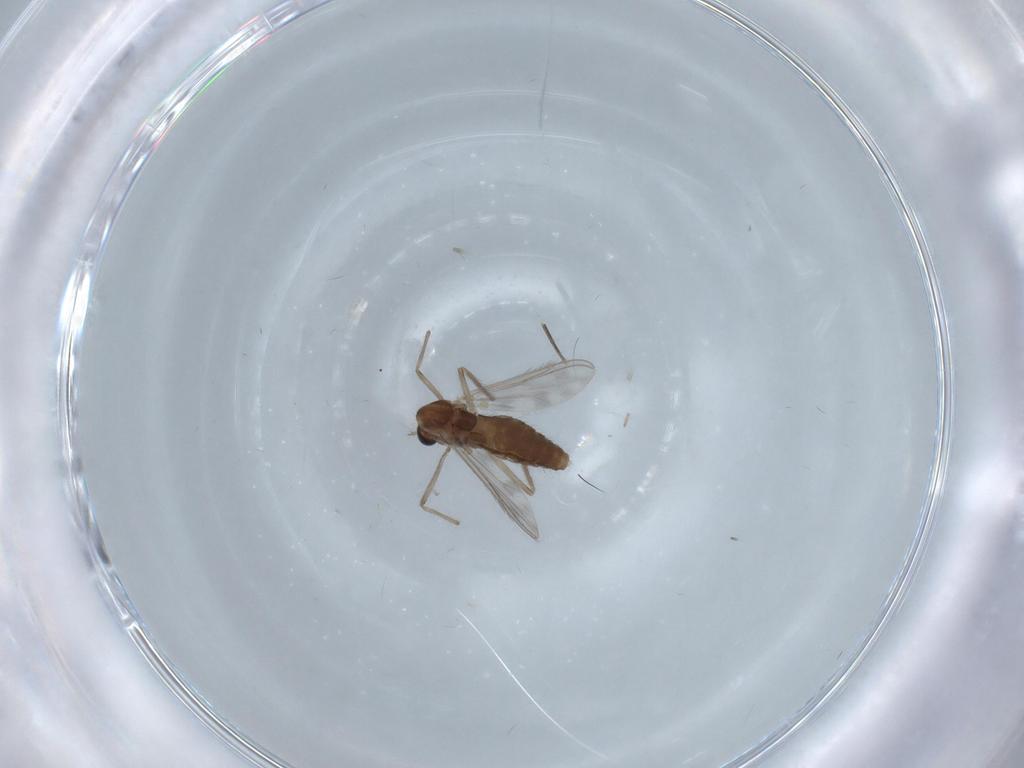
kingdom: Animalia
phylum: Arthropoda
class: Insecta
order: Diptera
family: Chironomidae
